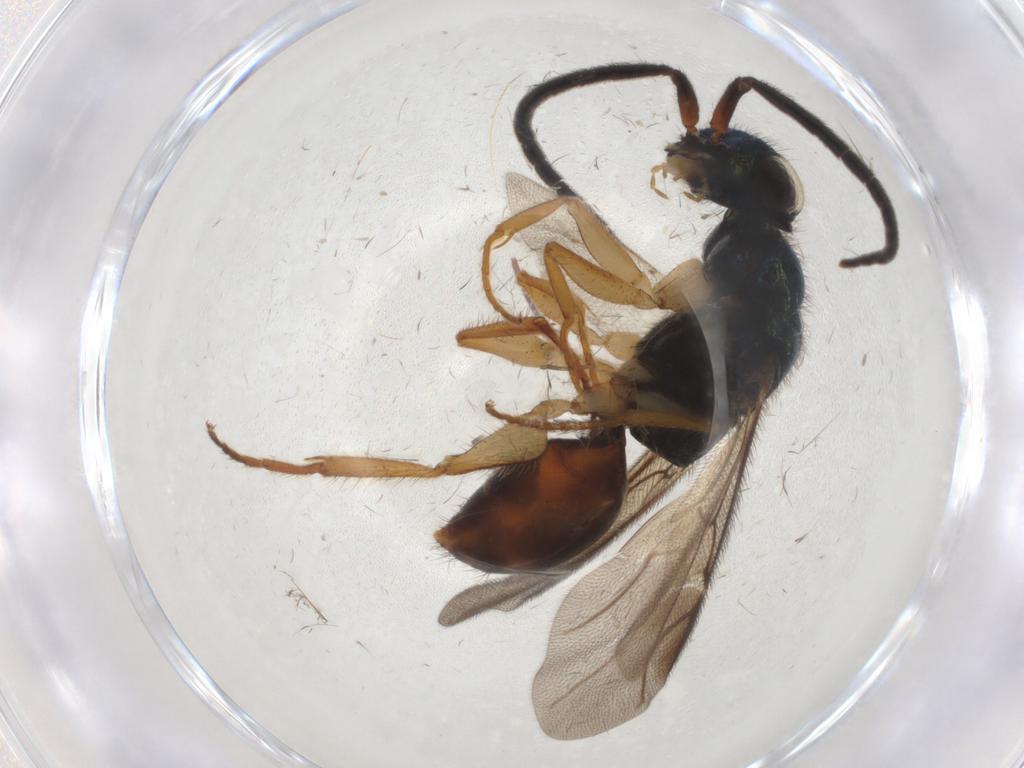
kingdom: Animalia
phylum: Arthropoda
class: Insecta
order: Hymenoptera
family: Chrysididae
